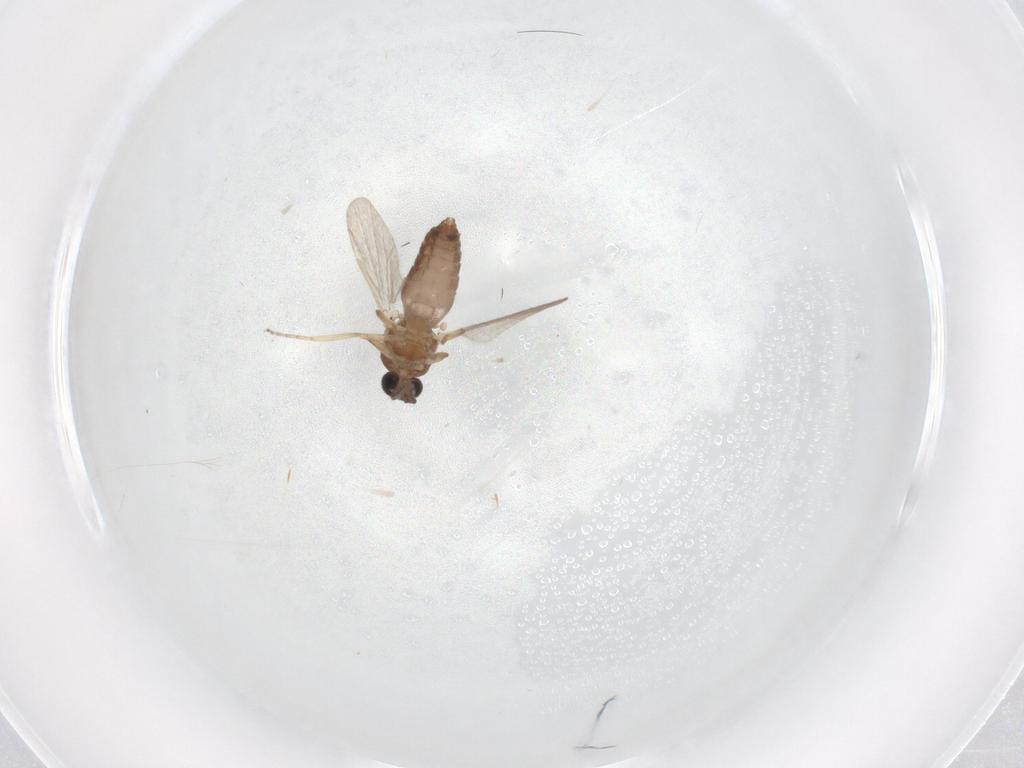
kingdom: Animalia
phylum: Arthropoda
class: Insecta
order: Diptera
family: Ceratopogonidae
